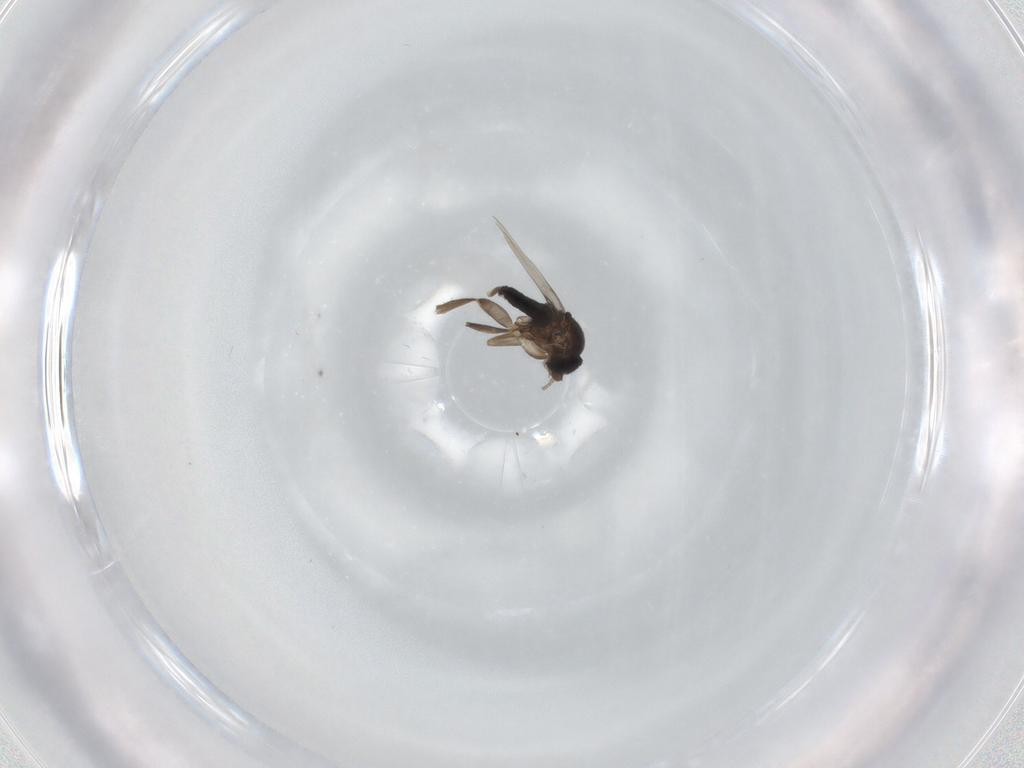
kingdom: Animalia
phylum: Arthropoda
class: Insecta
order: Diptera
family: Phoridae
